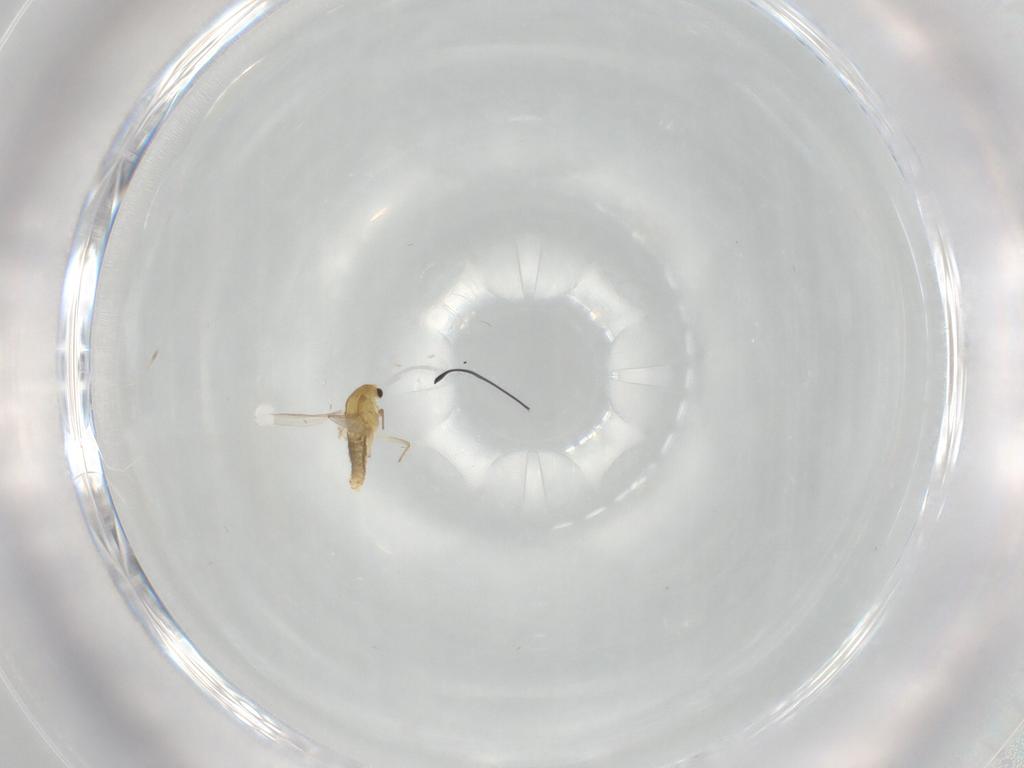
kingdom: Animalia
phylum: Arthropoda
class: Insecta
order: Diptera
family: Chironomidae
